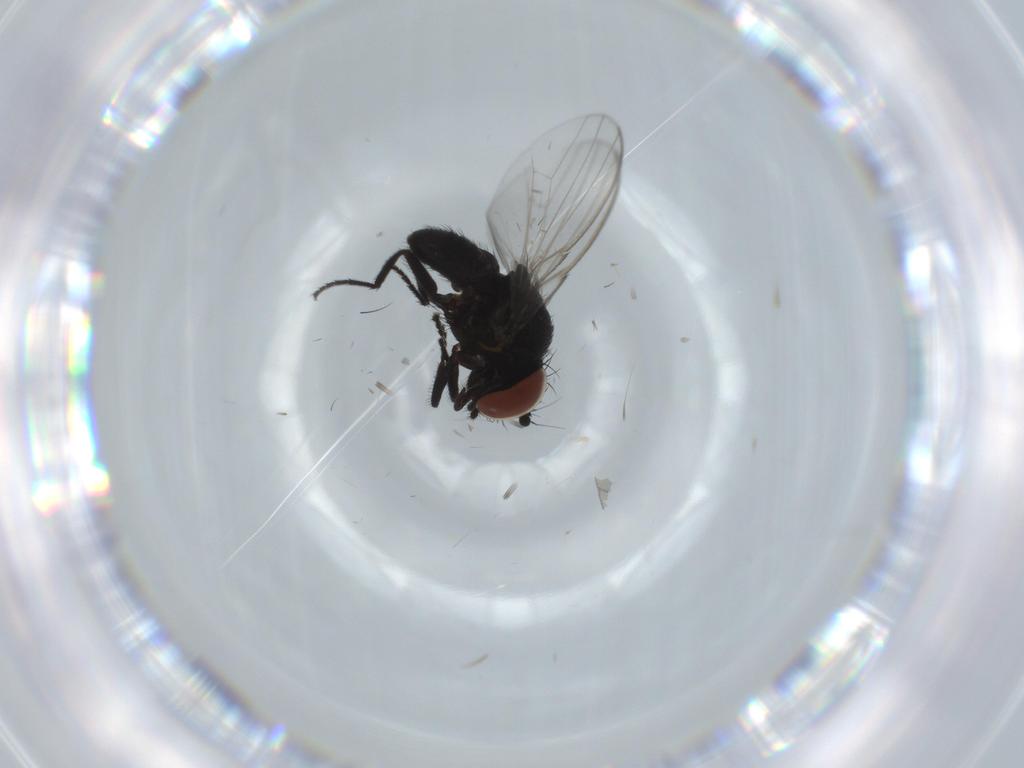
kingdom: Animalia
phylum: Arthropoda
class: Insecta
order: Diptera
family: Milichiidae
